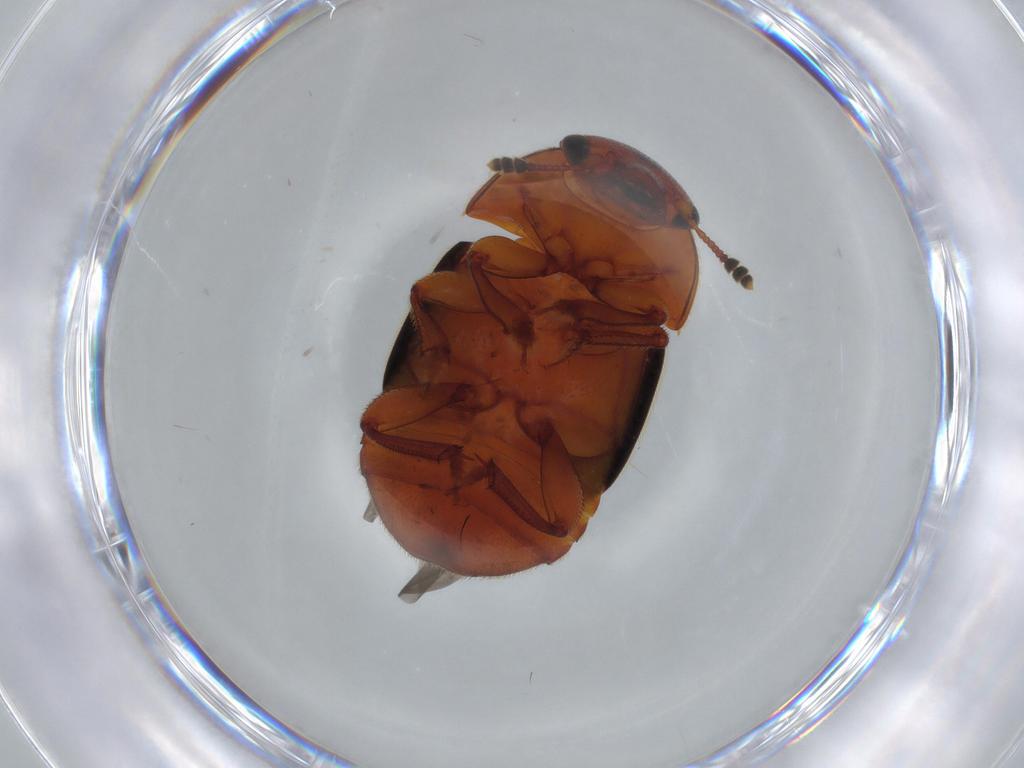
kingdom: Animalia
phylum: Arthropoda
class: Insecta
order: Coleoptera
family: Nitidulidae
